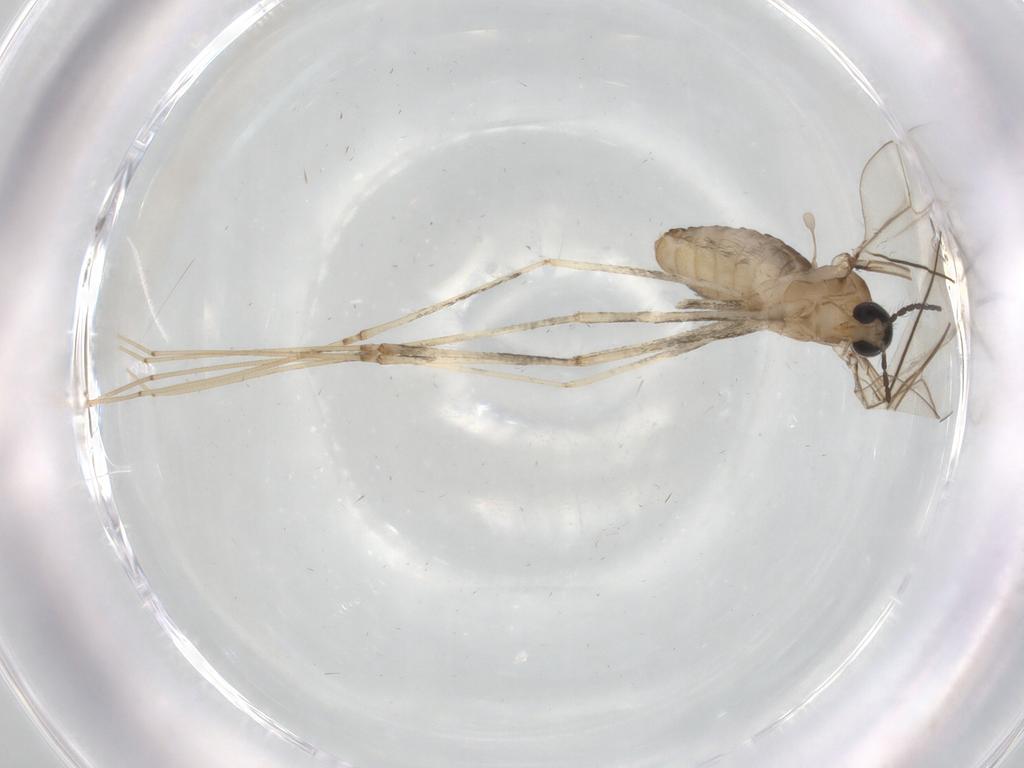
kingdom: Animalia
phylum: Arthropoda
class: Insecta
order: Diptera
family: Cecidomyiidae
